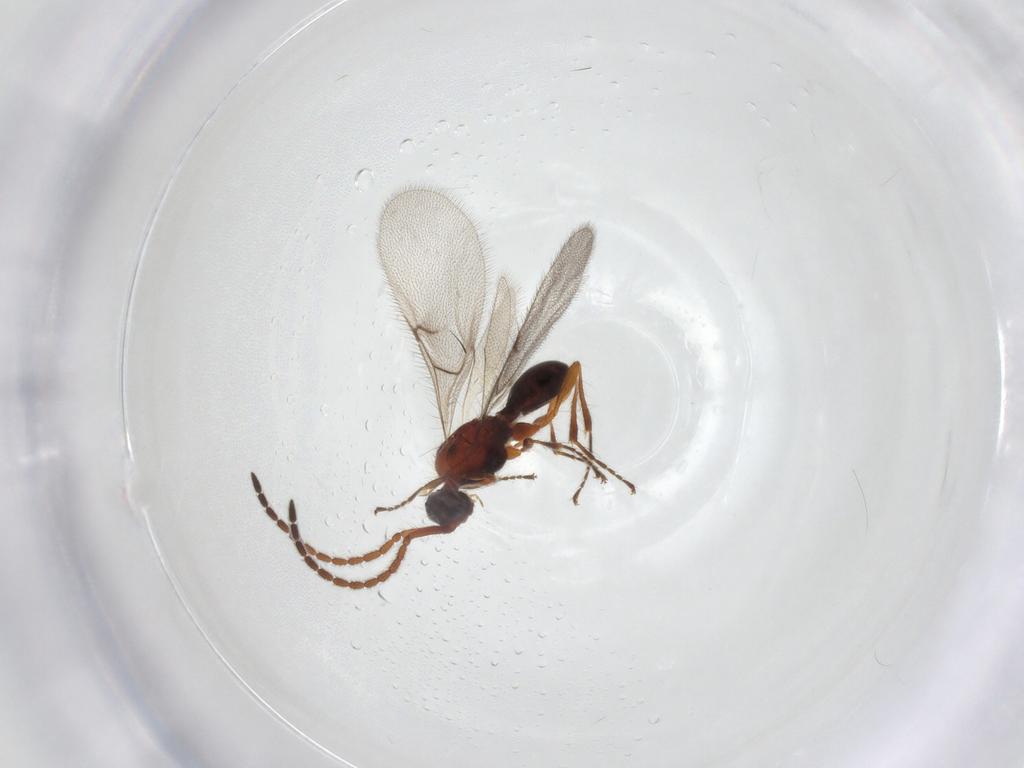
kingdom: Animalia
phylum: Arthropoda
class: Insecta
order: Hymenoptera
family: Diapriidae
